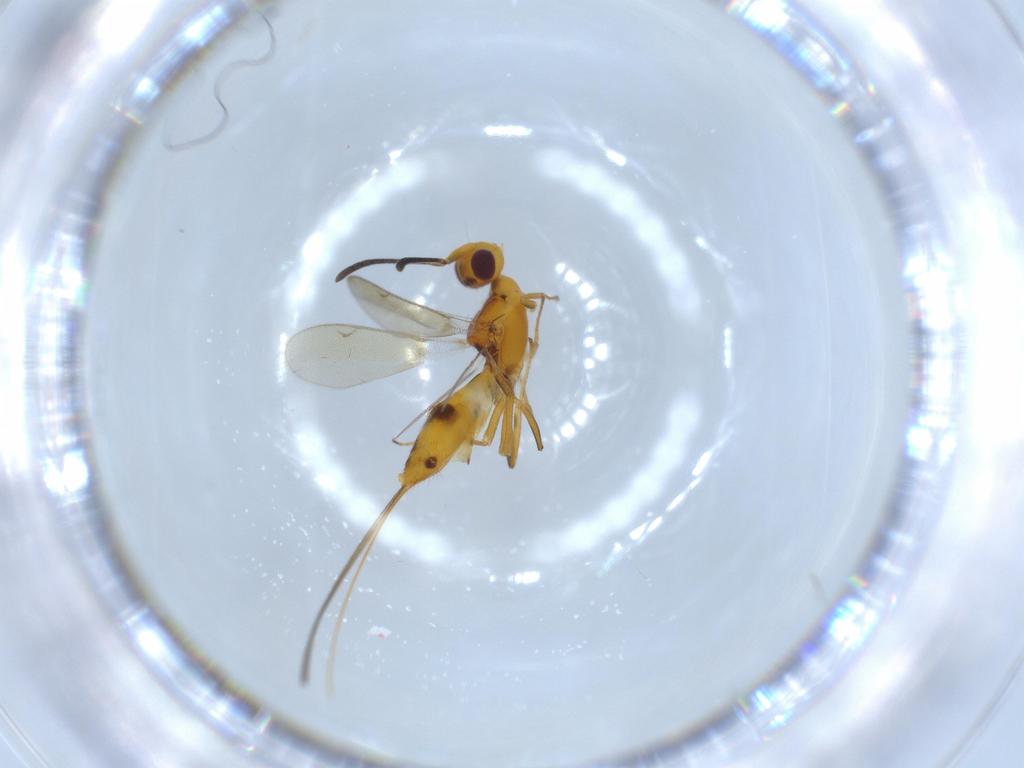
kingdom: Animalia
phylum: Arthropoda
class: Insecta
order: Hymenoptera
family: Eupelmidae
